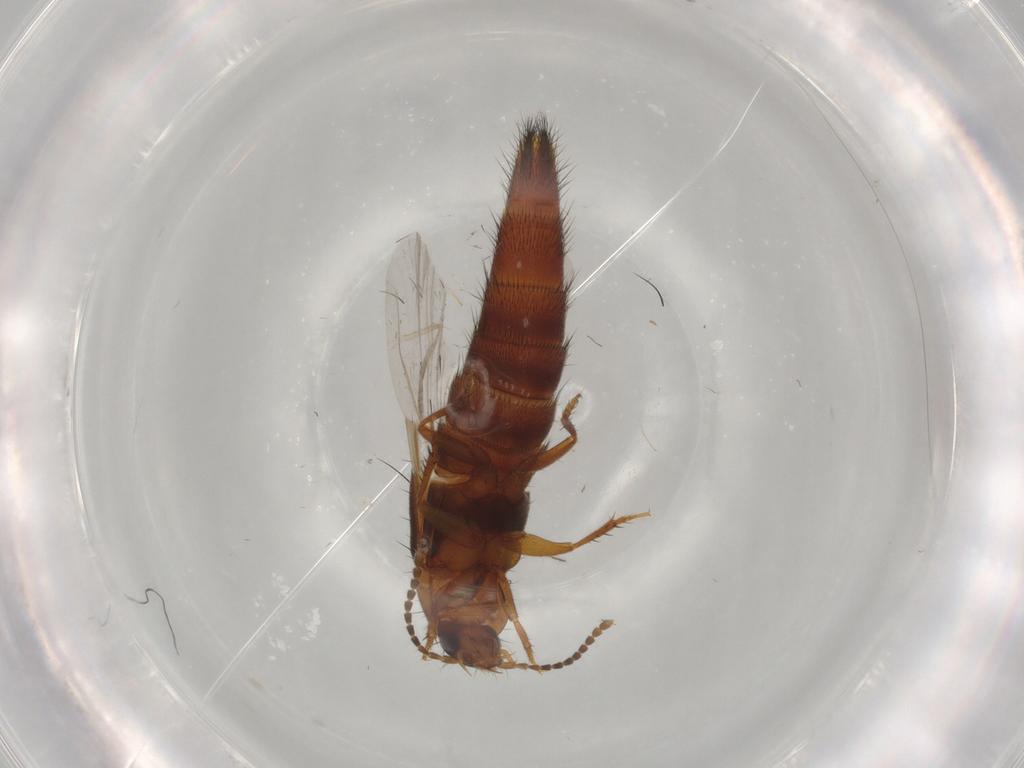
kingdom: Animalia
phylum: Arthropoda
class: Insecta
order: Coleoptera
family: Staphylinidae
